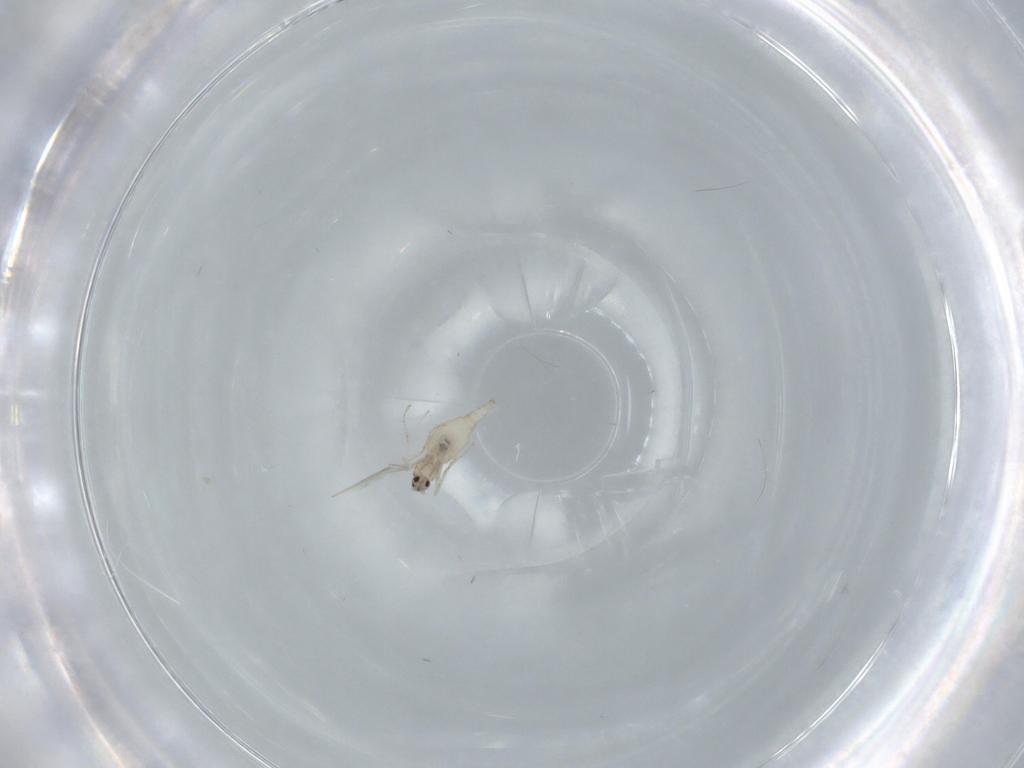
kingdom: Animalia
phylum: Arthropoda
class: Insecta
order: Diptera
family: Cecidomyiidae
